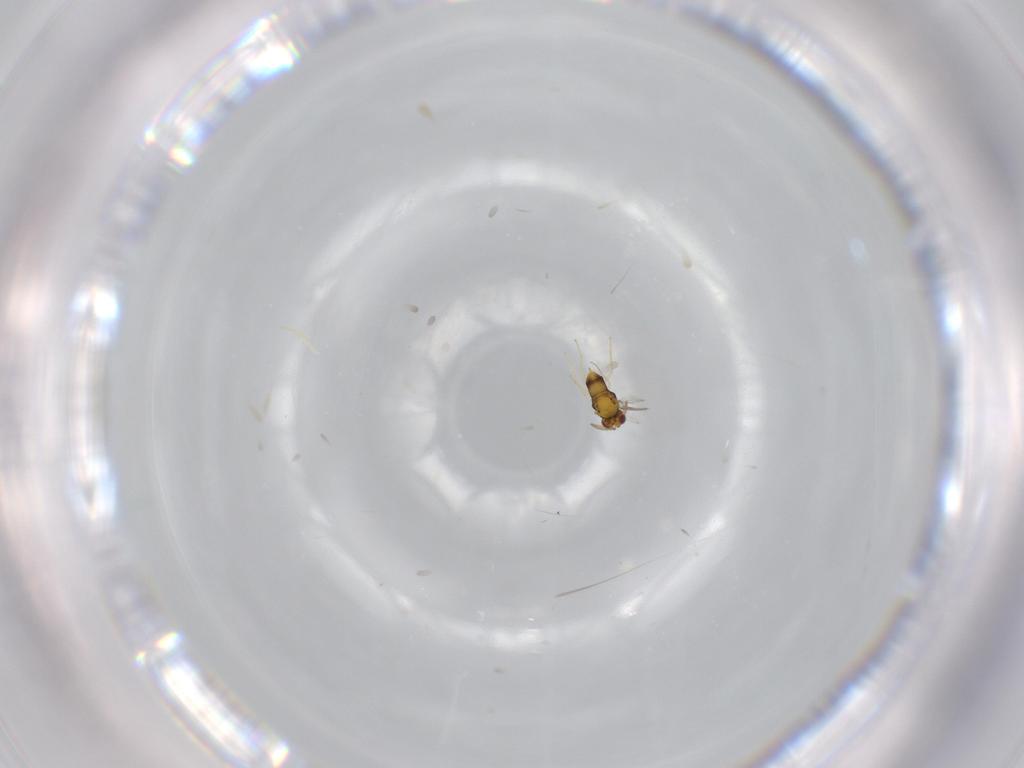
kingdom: Animalia
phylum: Arthropoda
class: Insecta
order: Hymenoptera
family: Aphelinidae
